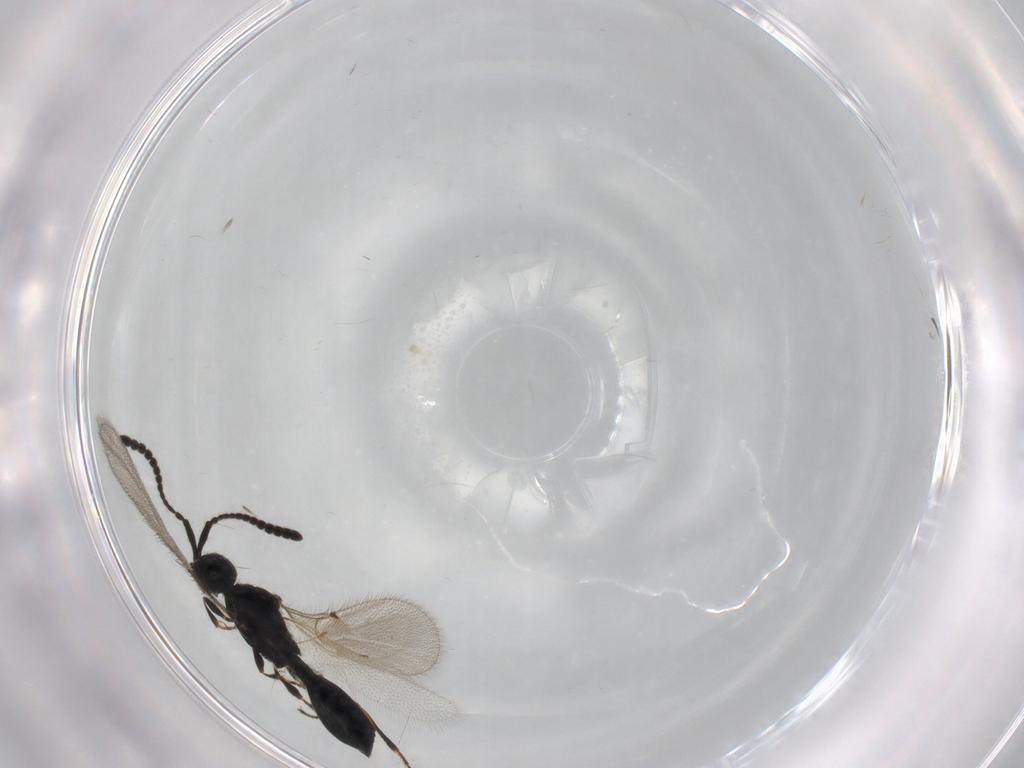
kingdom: Animalia
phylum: Arthropoda
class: Insecta
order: Hymenoptera
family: Diapriidae
